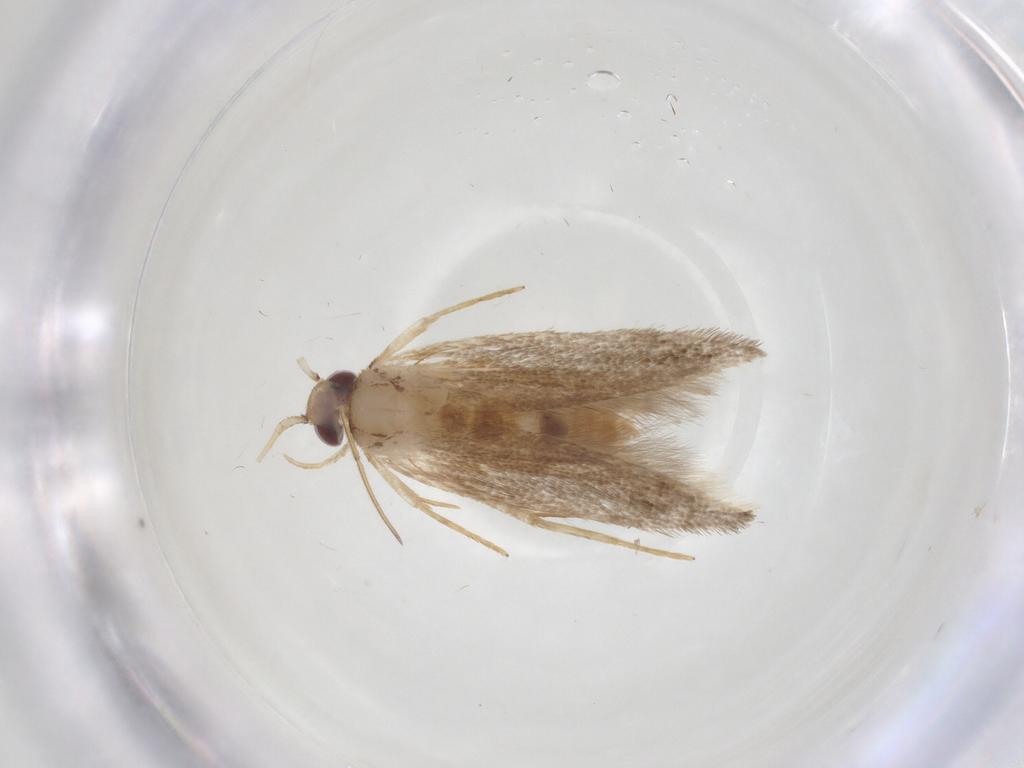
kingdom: Animalia
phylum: Arthropoda
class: Insecta
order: Lepidoptera
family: Cosmopterigidae
